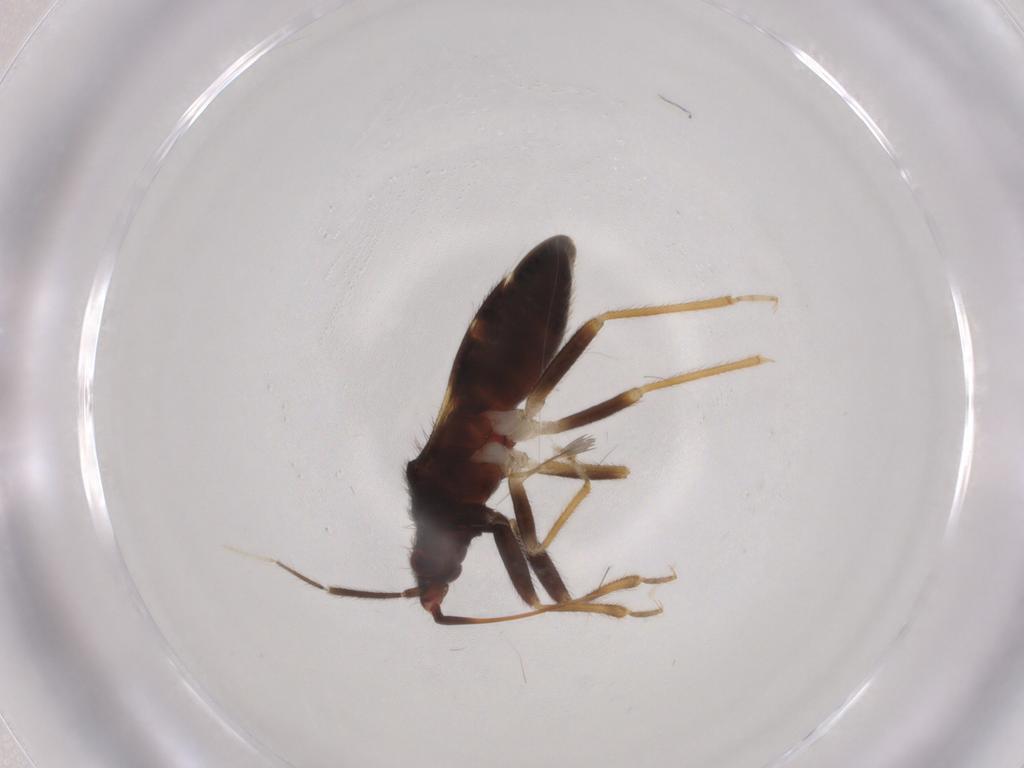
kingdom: Animalia
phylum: Arthropoda
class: Insecta
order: Hemiptera
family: Anthocoridae
